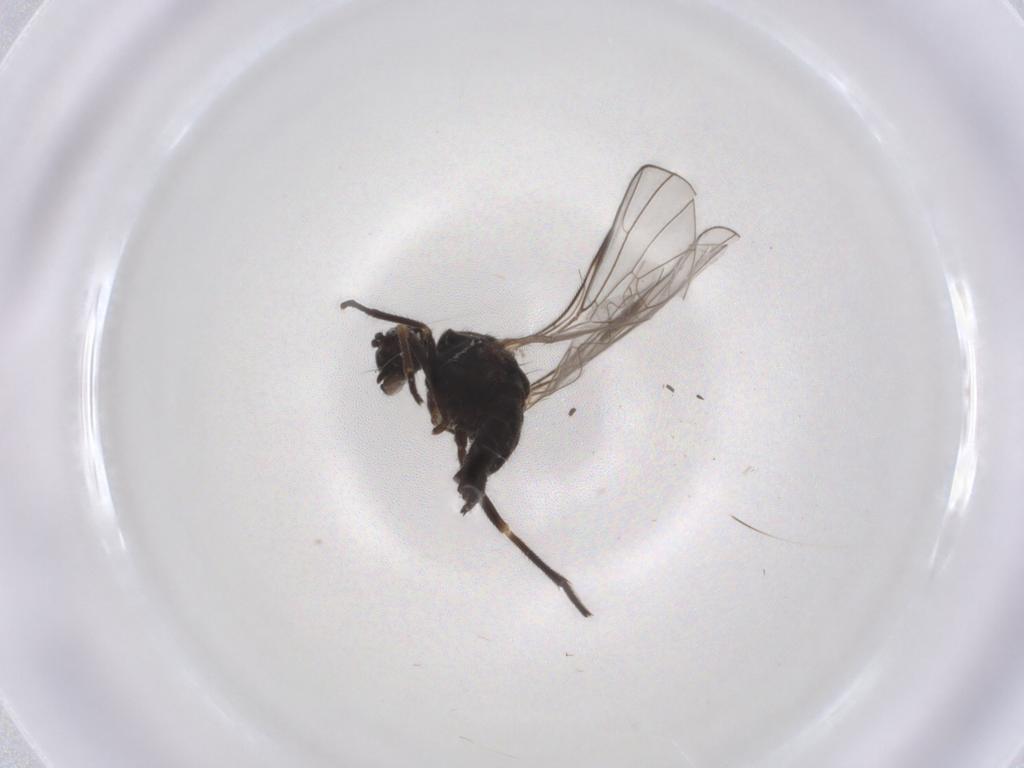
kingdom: Animalia
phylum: Arthropoda
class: Insecta
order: Diptera
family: Empididae
